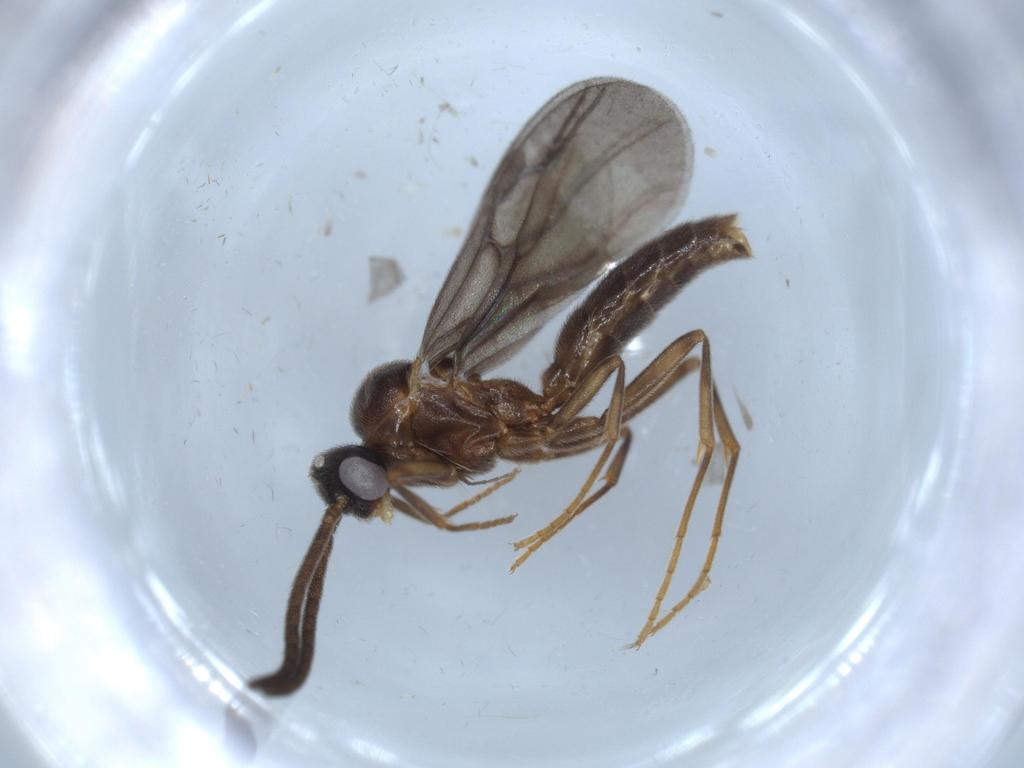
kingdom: Animalia
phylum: Arthropoda
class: Insecta
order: Hymenoptera
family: Formicidae
